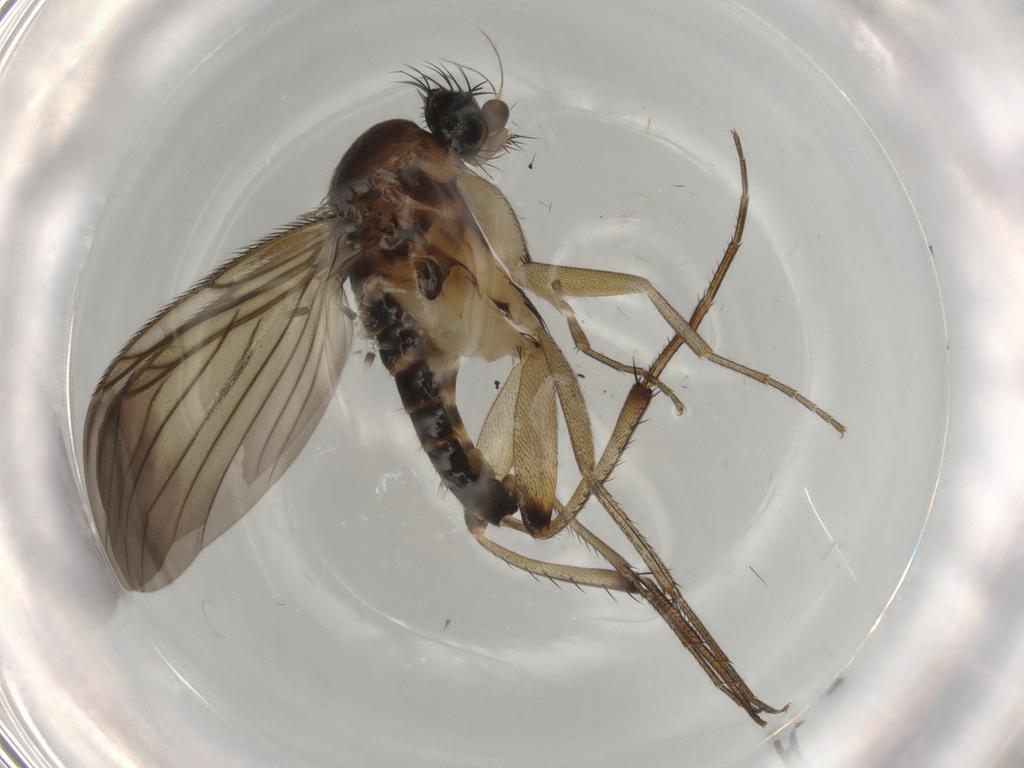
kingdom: Animalia
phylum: Arthropoda
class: Insecta
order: Diptera
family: Phoridae
